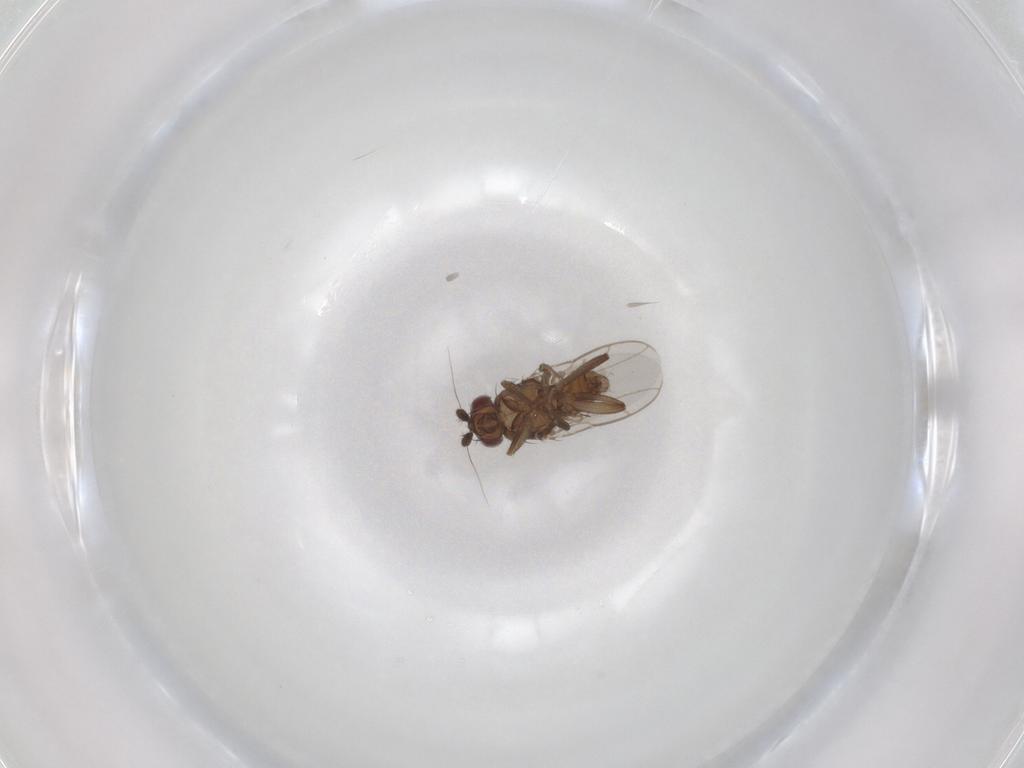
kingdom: Animalia
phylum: Arthropoda
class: Insecta
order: Diptera
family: Sphaeroceridae
